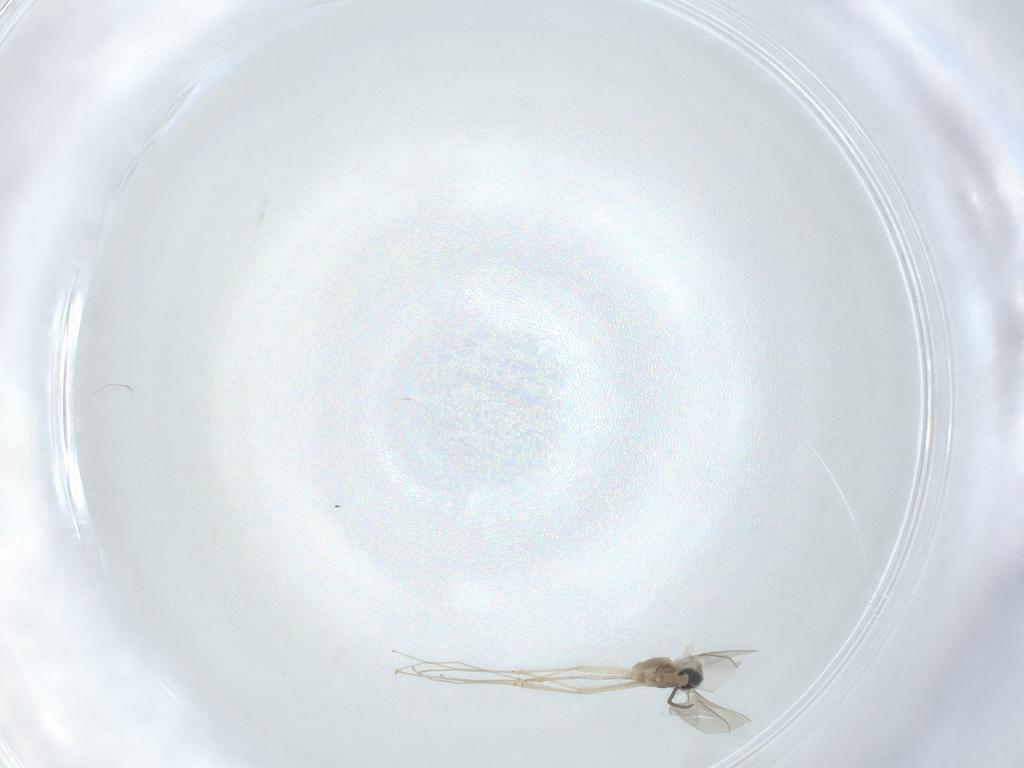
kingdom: Animalia
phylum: Arthropoda
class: Insecta
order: Diptera
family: Cecidomyiidae
